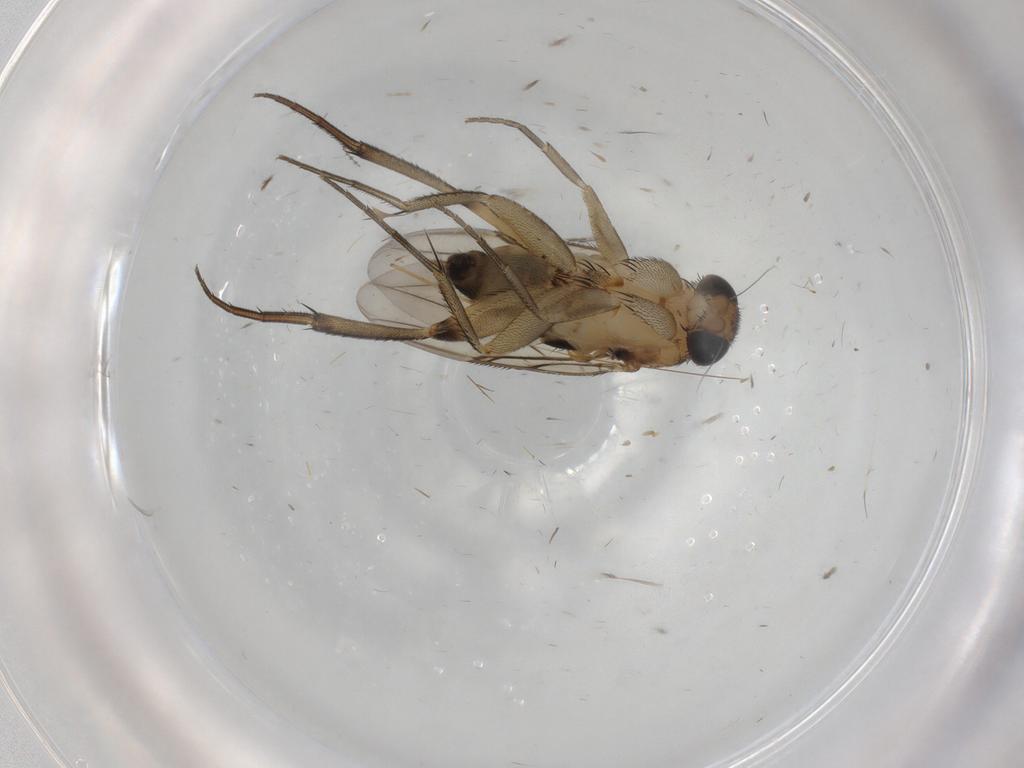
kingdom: Animalia
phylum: Arthropoda
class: Insecta
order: Diptera
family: Phoridae
